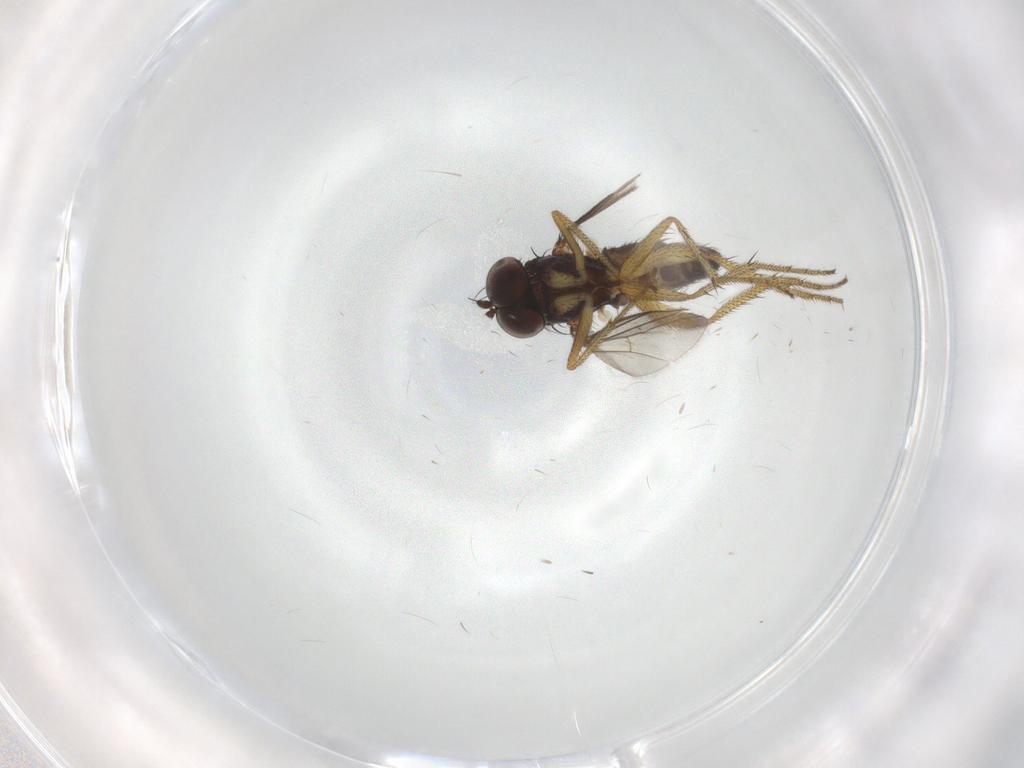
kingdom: Animalia
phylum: Arthropoda
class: Insecta
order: Diptera
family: Dolichopodidae
